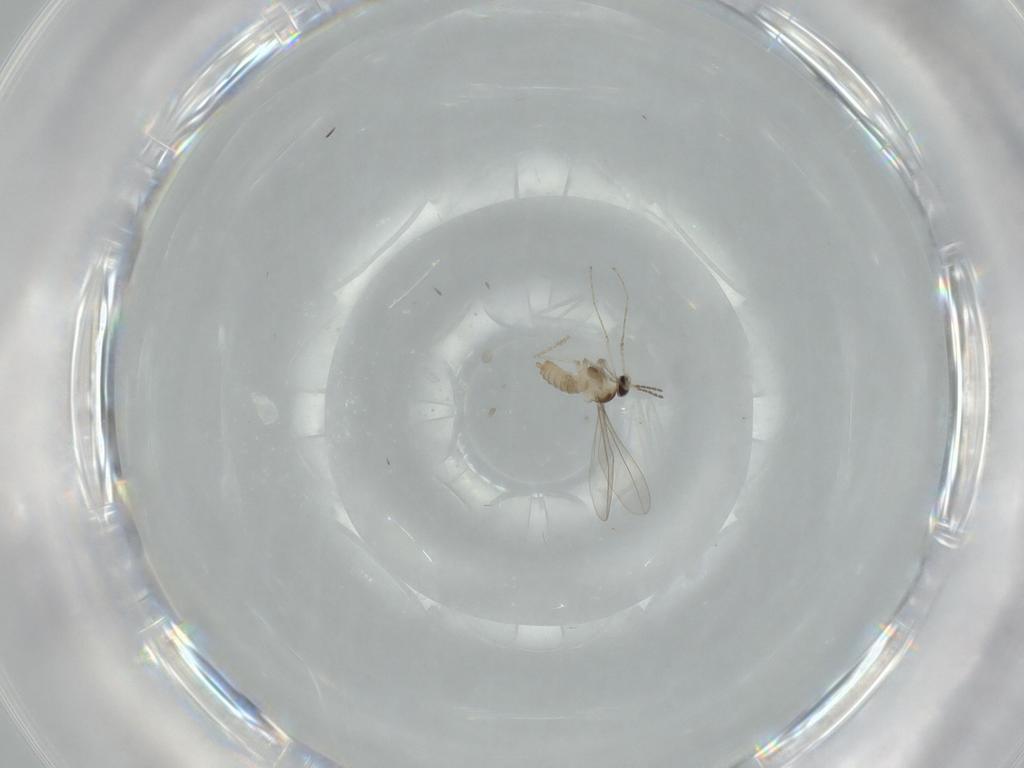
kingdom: Animalia
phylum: Arthropoda
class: Insecta
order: Diptera
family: Cecidomyiidae
